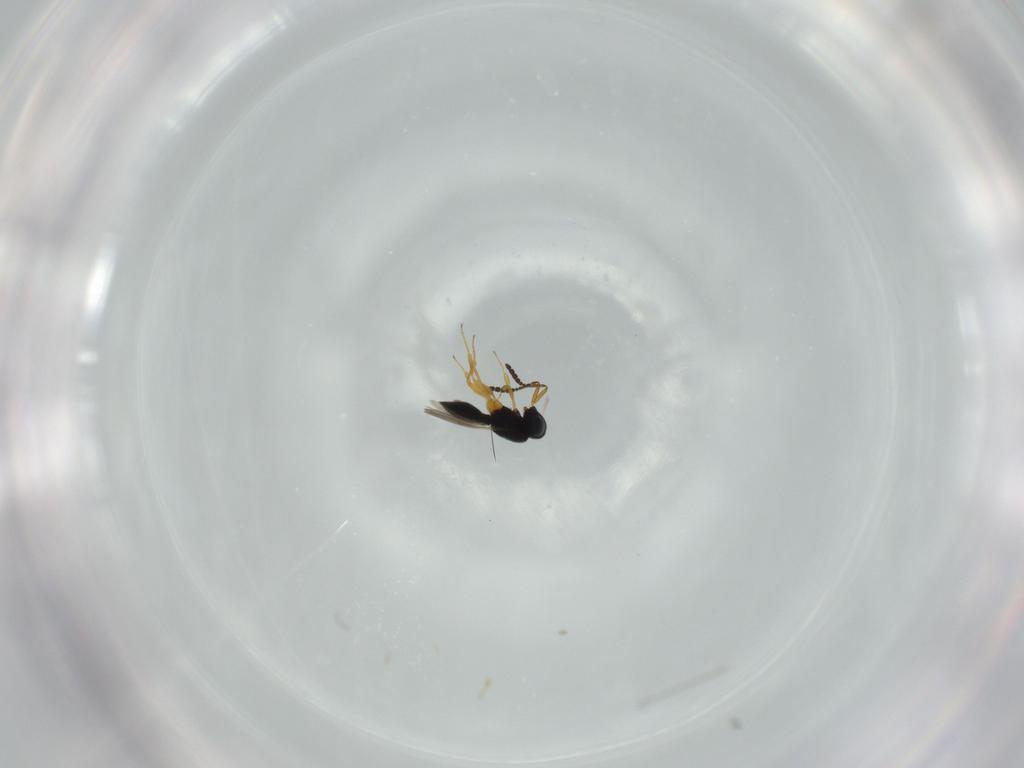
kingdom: Animalia
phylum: Arthropoda
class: Insecta
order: Hymenoptera
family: Scelionidae
